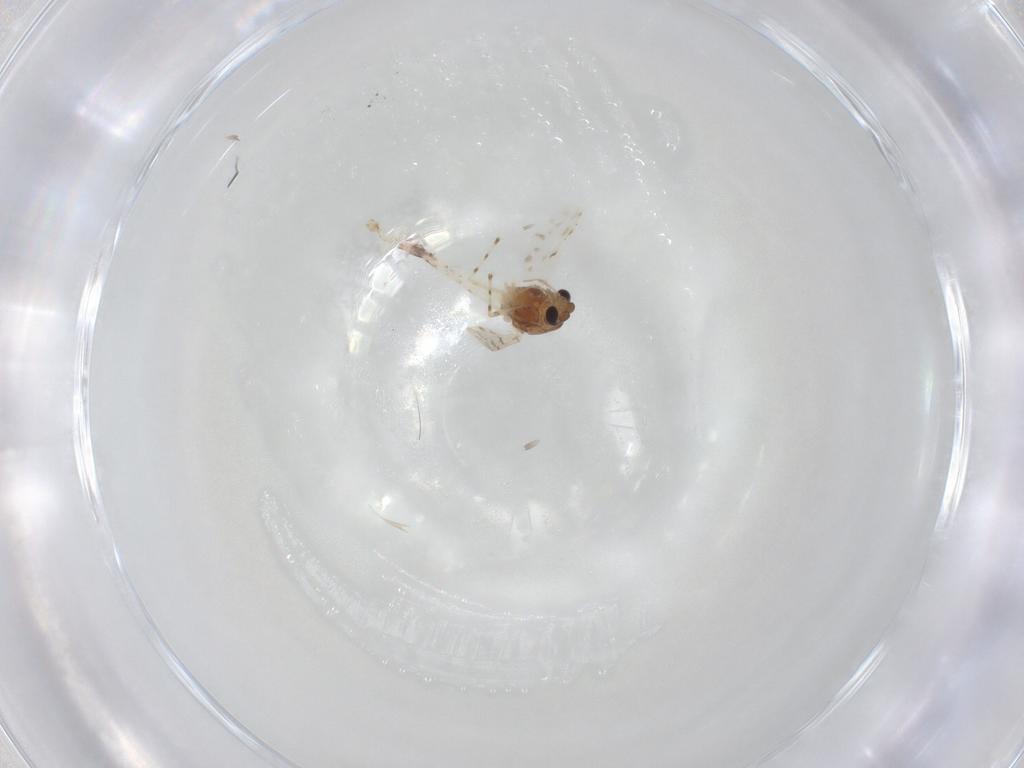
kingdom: Animalia
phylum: Arthropoda
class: Insecta
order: Diptera
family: Chironomidae
